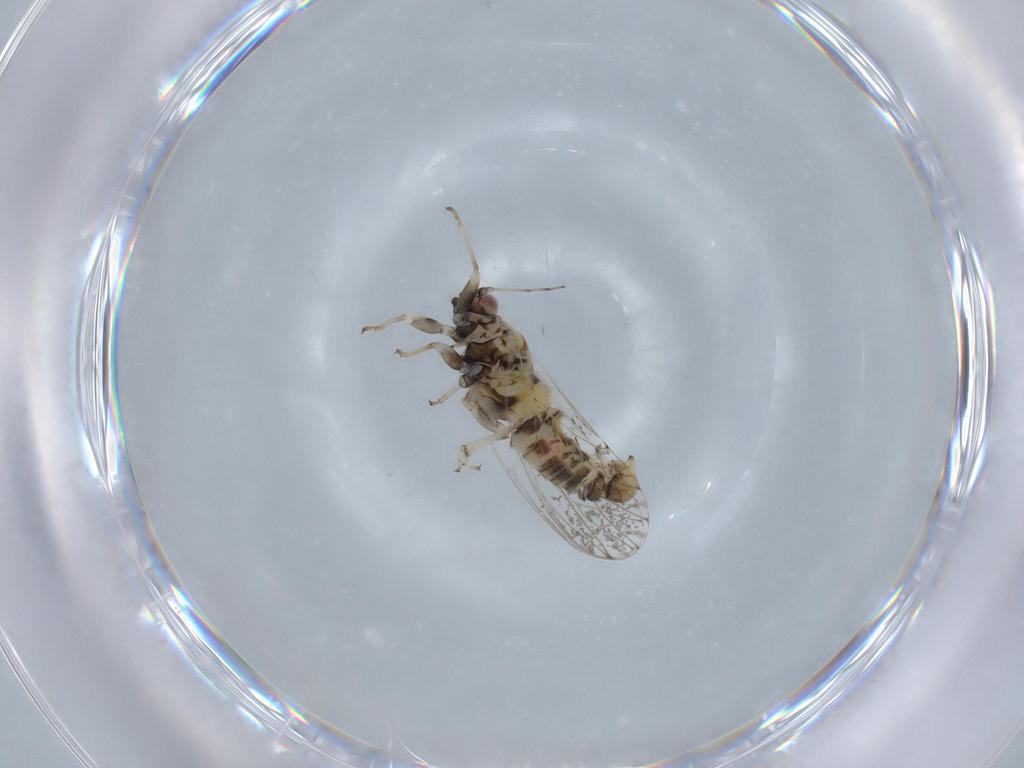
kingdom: Animalia
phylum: Arthropoda
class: Insecta
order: Hemiptera
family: Psyllidae
